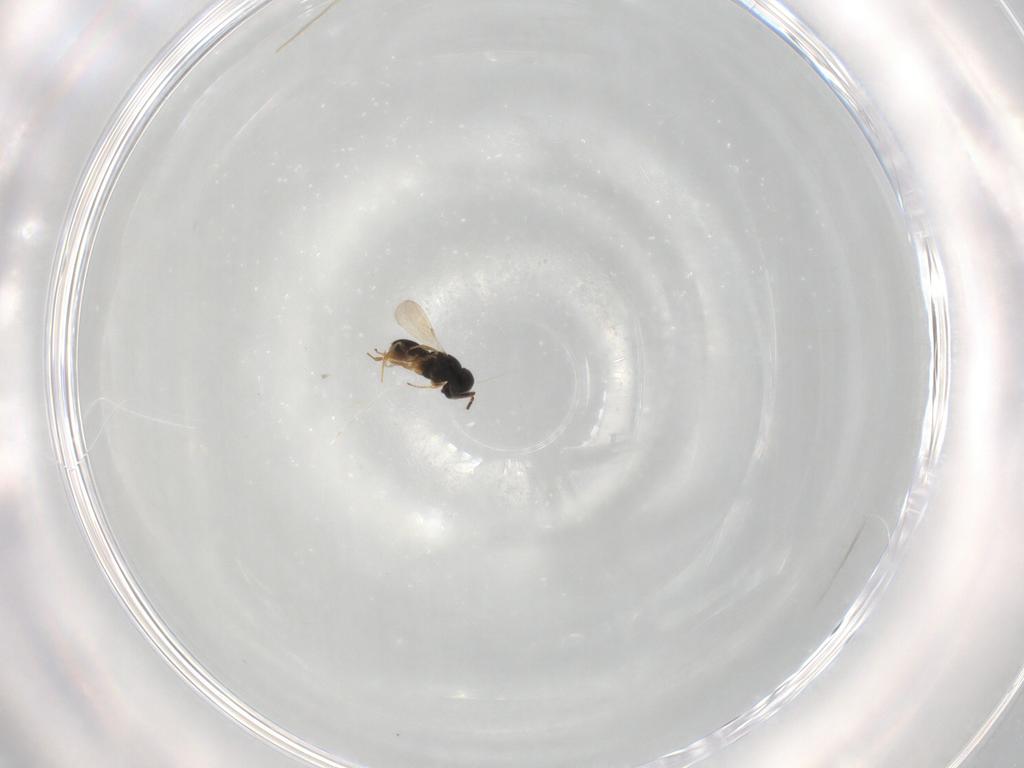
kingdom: Animalia
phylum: Arthropoda
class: Insecta
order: Hymenoptera
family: Scelionidae
